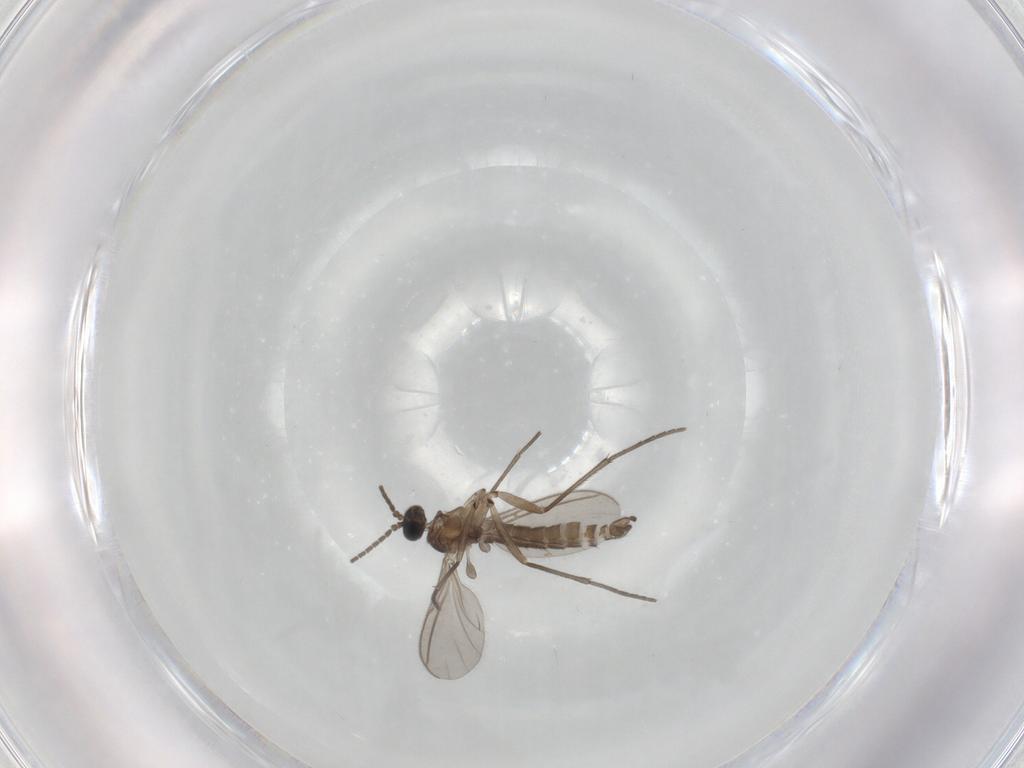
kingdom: Animalia
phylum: Arthropoda
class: Insecta
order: Diptera
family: Sciaridae
